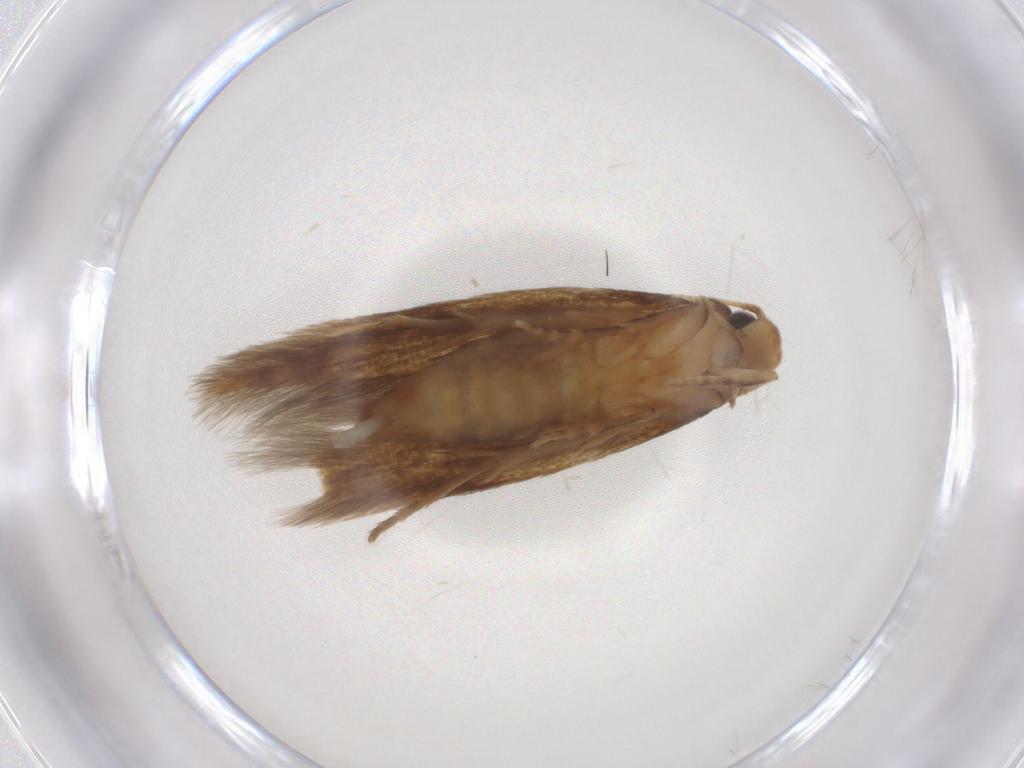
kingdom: Animalia
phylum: Arthropoda
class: Insecta
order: Lepidoptera
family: Tineidae
